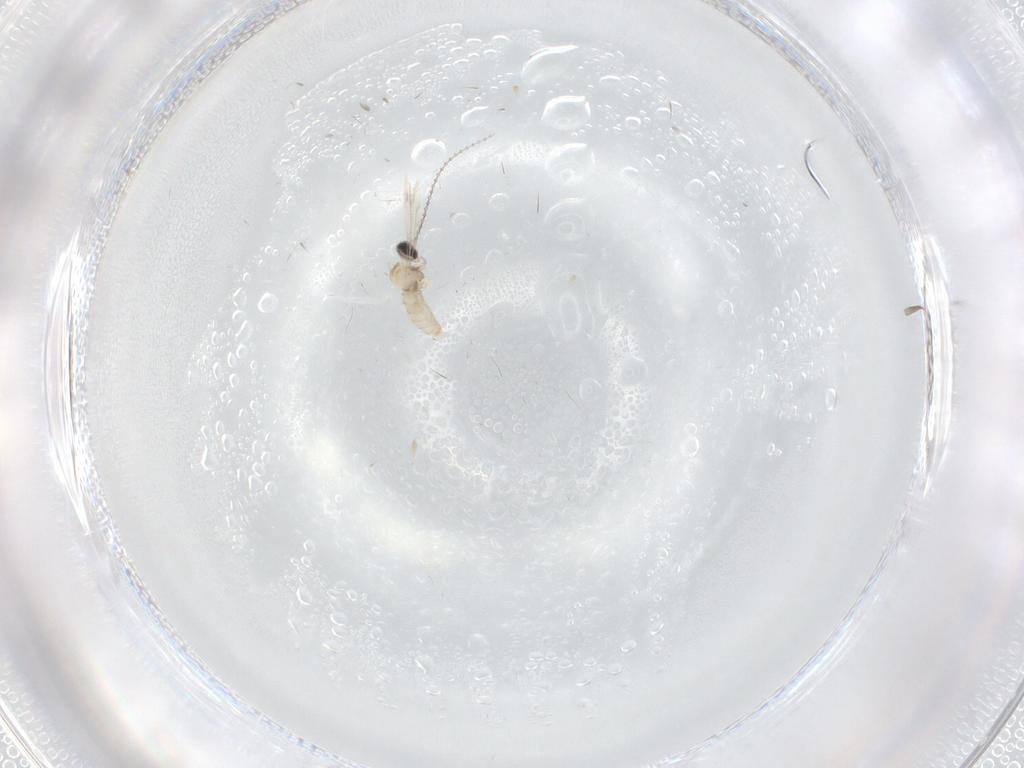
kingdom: Animalia
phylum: Arthropoda
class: Insecta
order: Diptera
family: Cecidomyiidae
